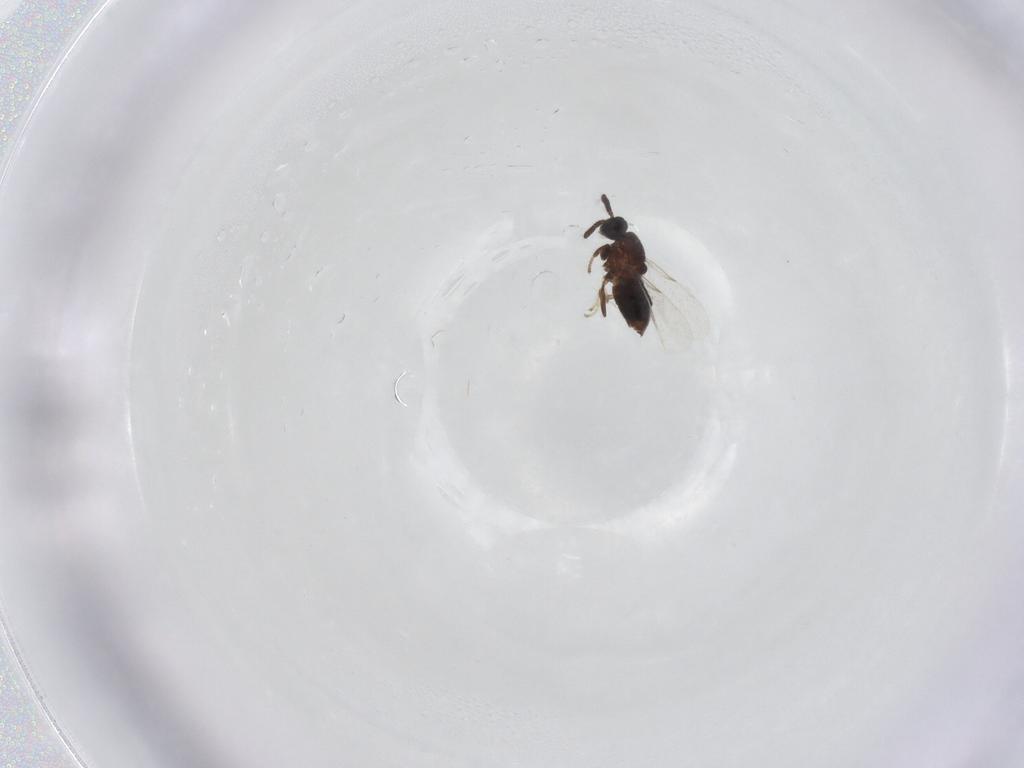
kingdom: Animalia
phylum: Arthropoda
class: Insecta
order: Diptera
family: Scatopsidae
